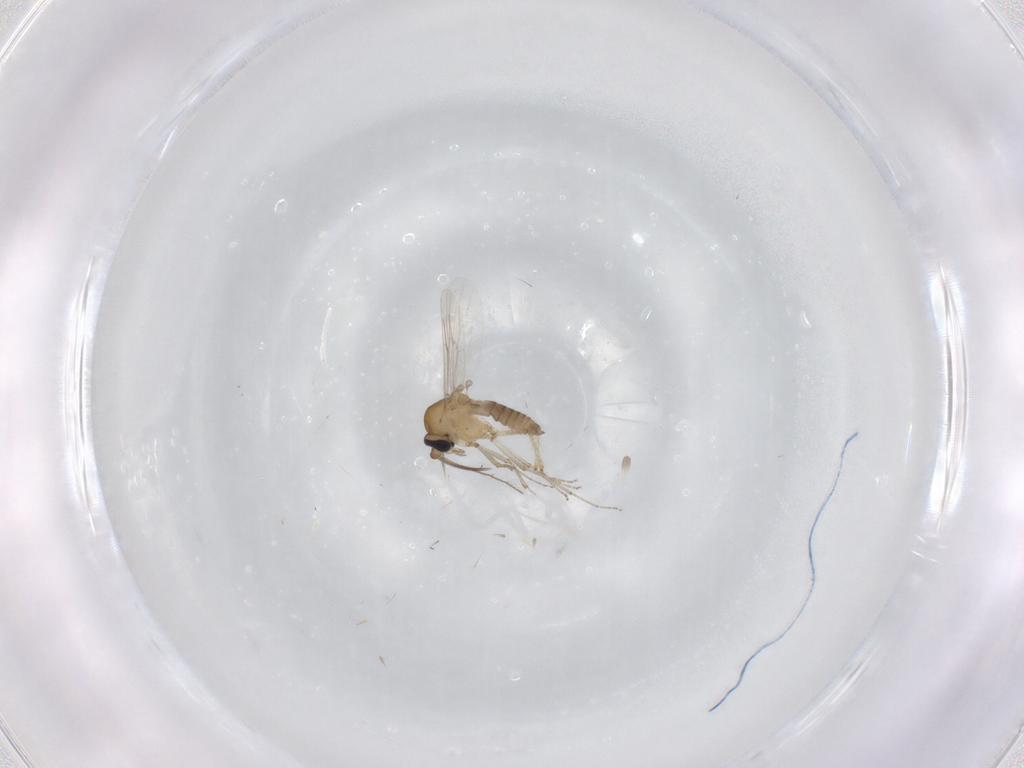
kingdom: Animalia
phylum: Arthropoda
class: Insecta
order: Diptera
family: Ceratopogonidae
